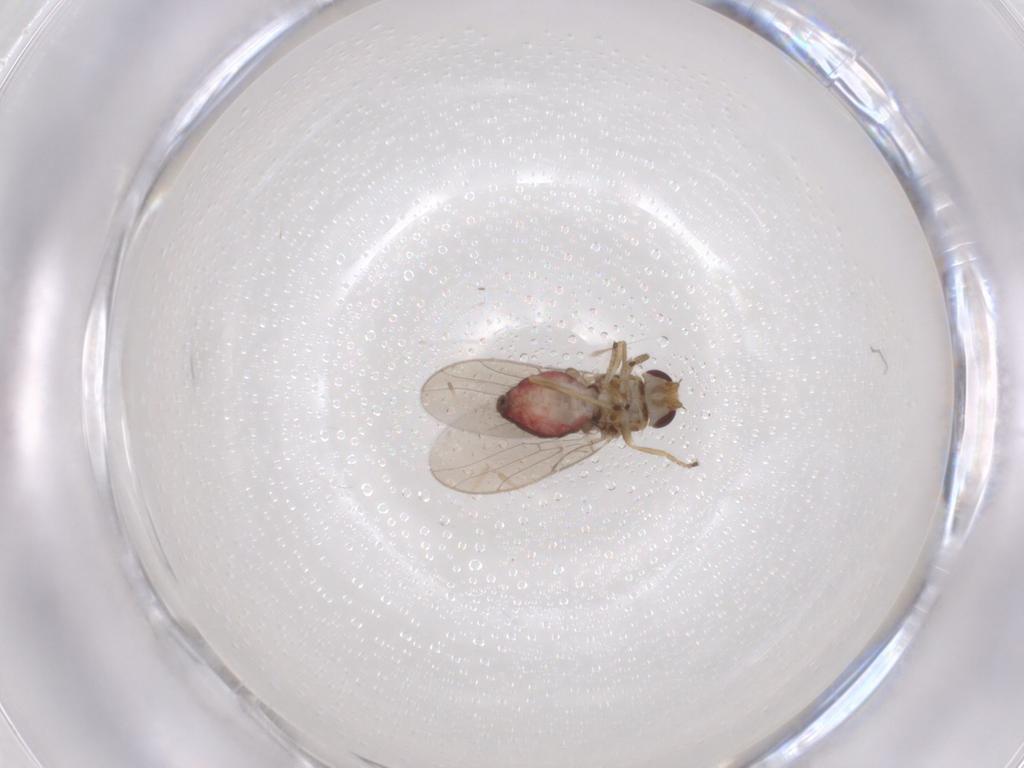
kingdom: Animalia
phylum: Arthropoda
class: Insecta
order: Diptera
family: Chloropidae
